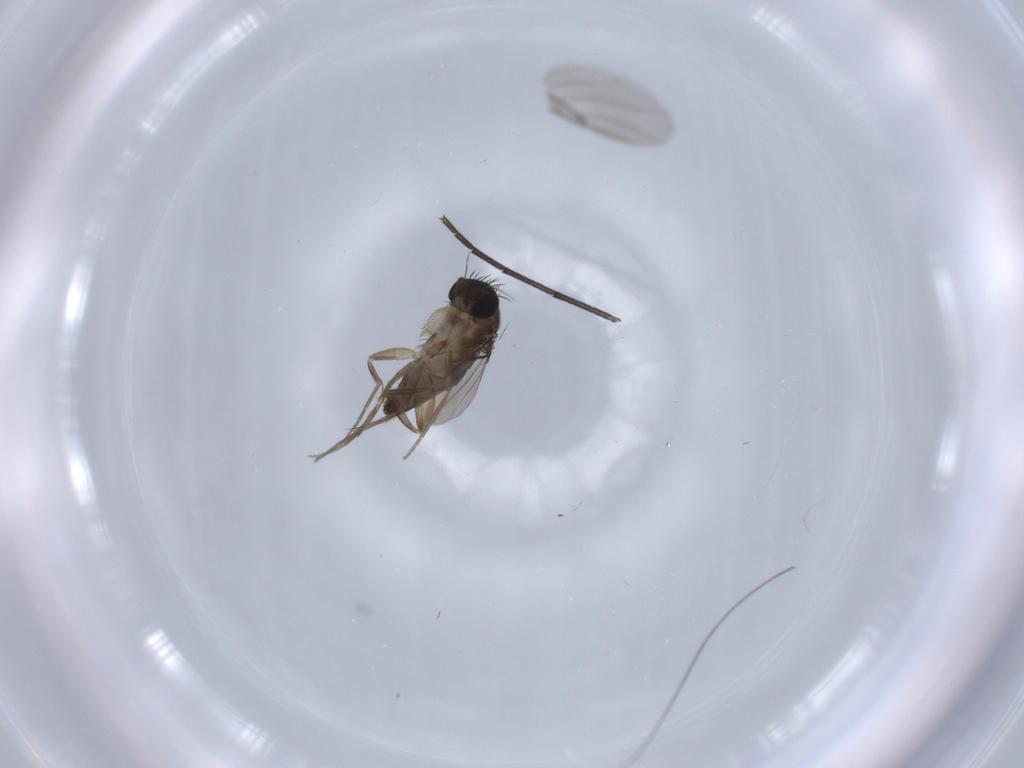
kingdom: Animalia
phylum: Arthropoda
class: Insecta
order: Diptera
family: Phoridae
